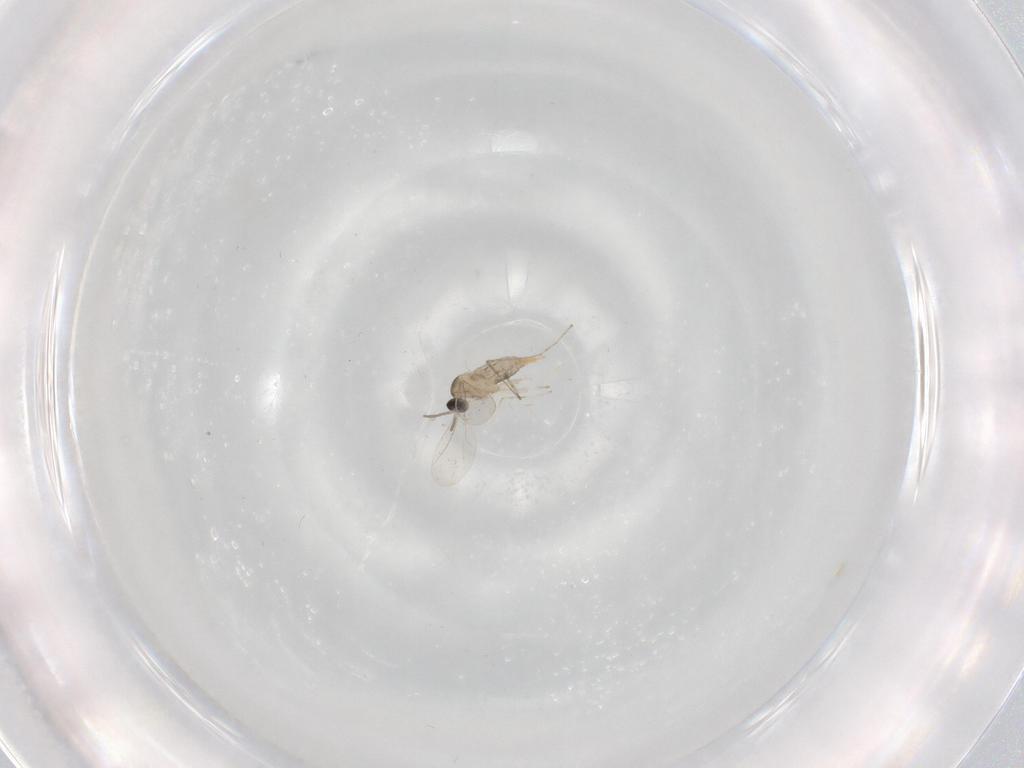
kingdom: Animalia
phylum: Arthropoda
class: Insecta
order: Diptera
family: Cecidomyiidae
